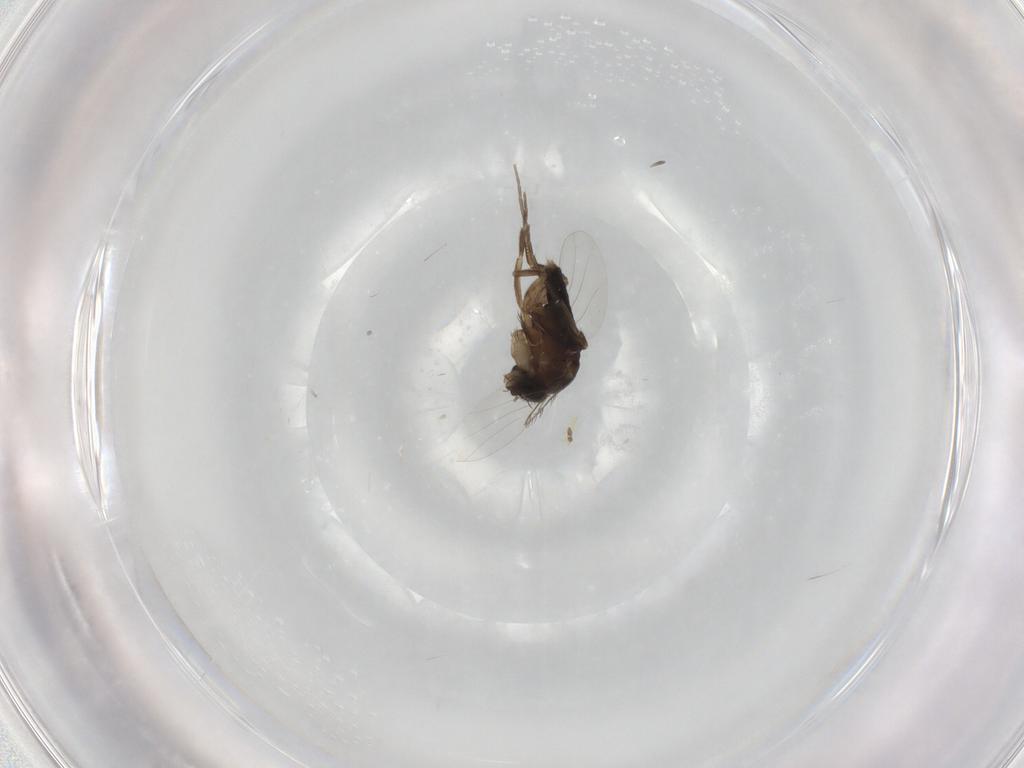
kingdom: Animalia
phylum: Arthropoda
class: Insecta
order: Diptera
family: Phoridae
